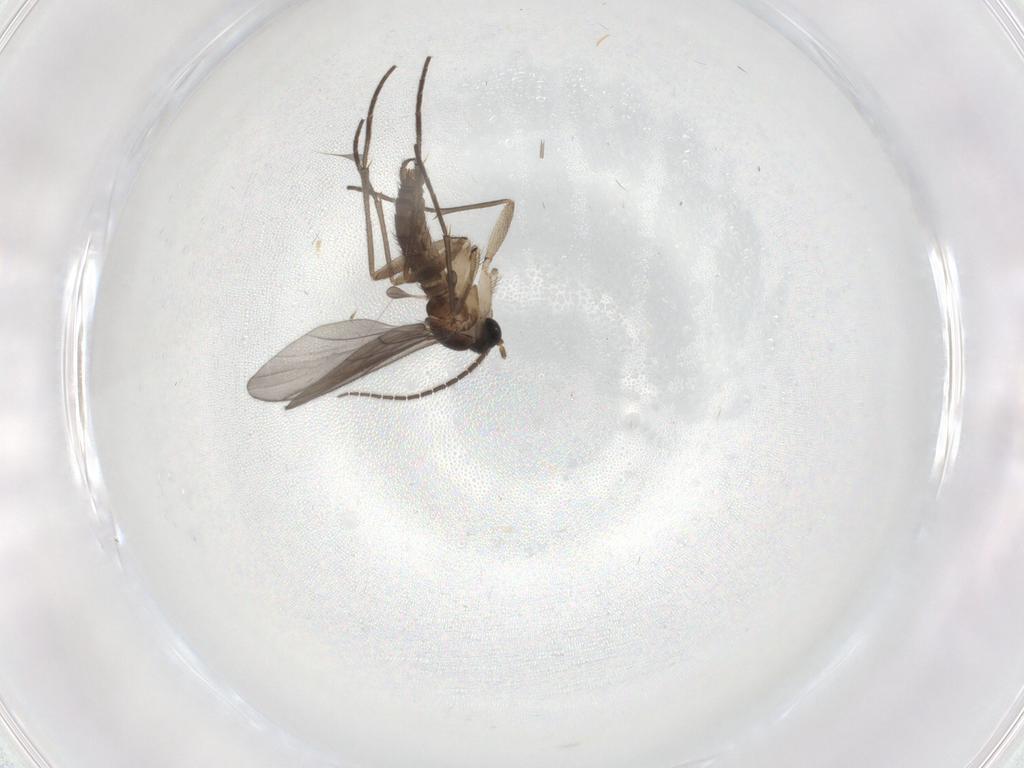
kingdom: Animalia
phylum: Arthropoda
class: Insecta
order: Diptera
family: Sciaridae
